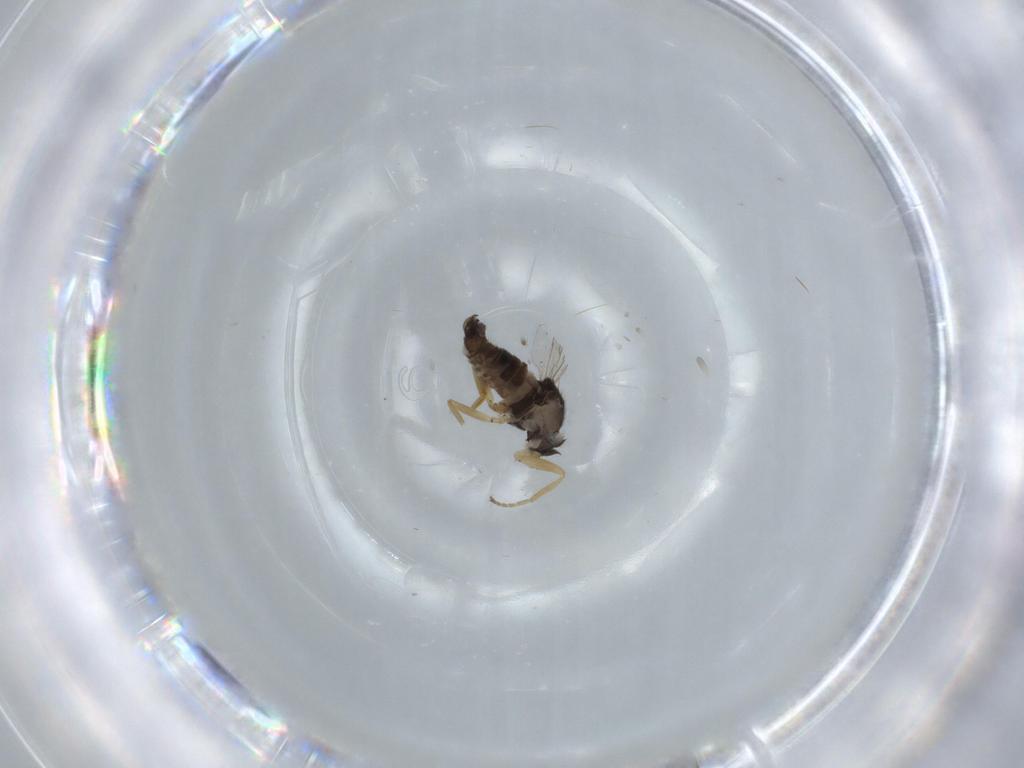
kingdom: Animalia
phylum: Arthropoda
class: Insecta
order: Diptera
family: Hybotidae
